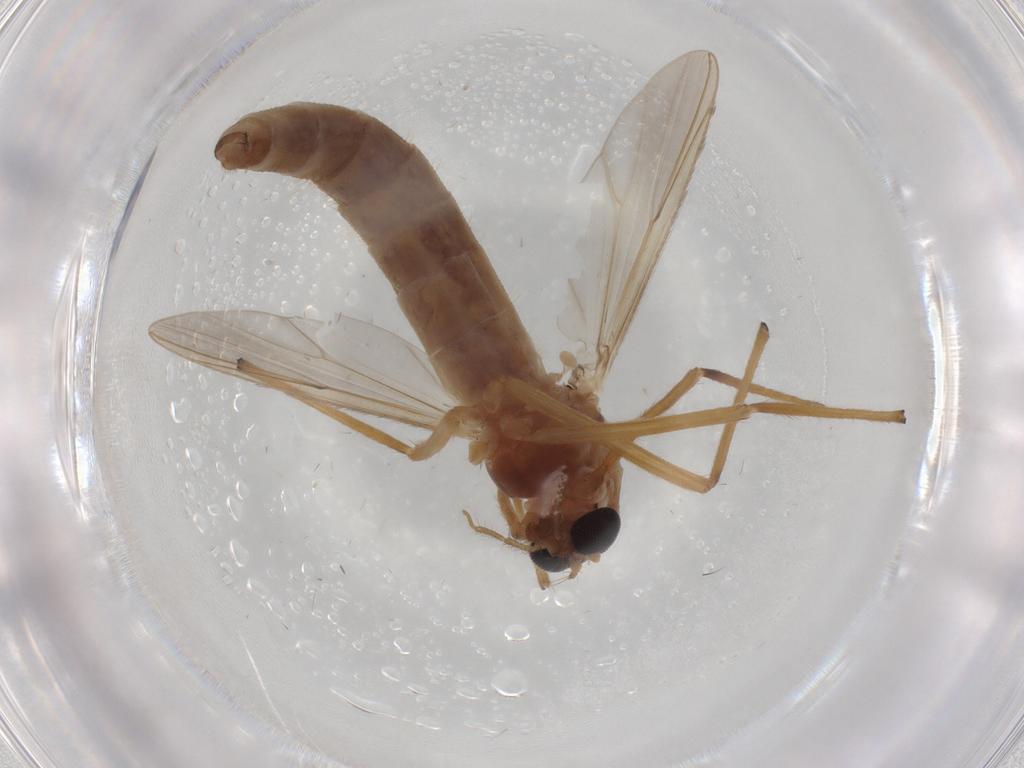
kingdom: Animalia
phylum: Arthropoda
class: Insecta
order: Diptera
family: Chironomidae
